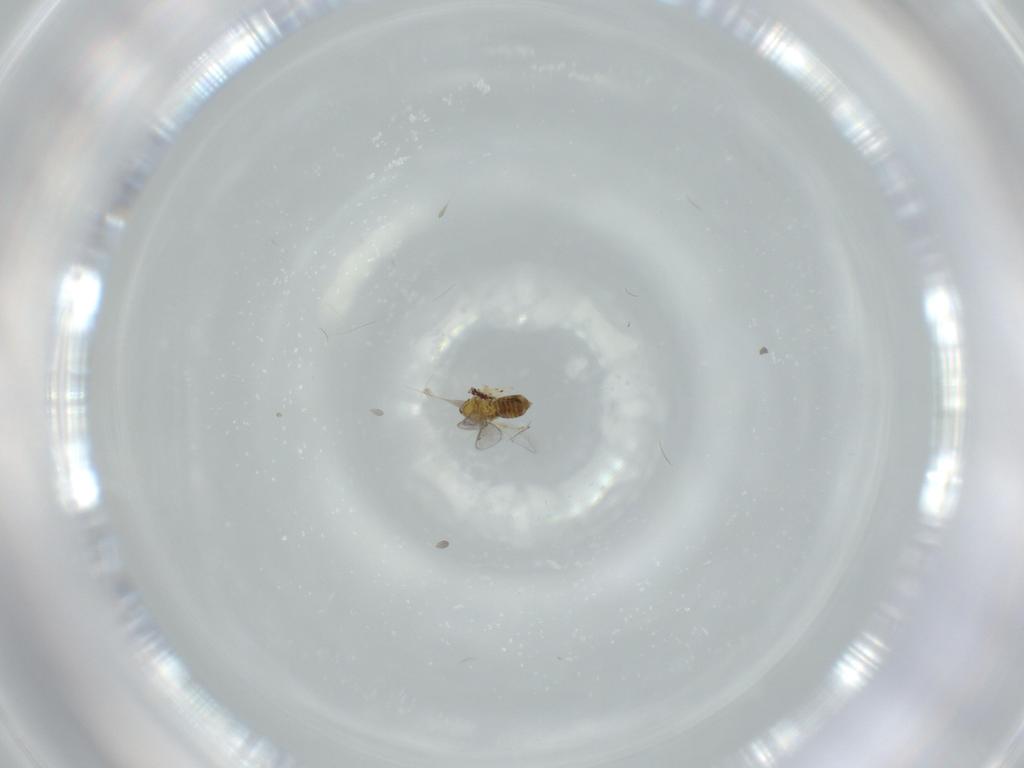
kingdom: Animalia
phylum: Arthropoda
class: Insecta
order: Hymenoptera
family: Aphelinidae
